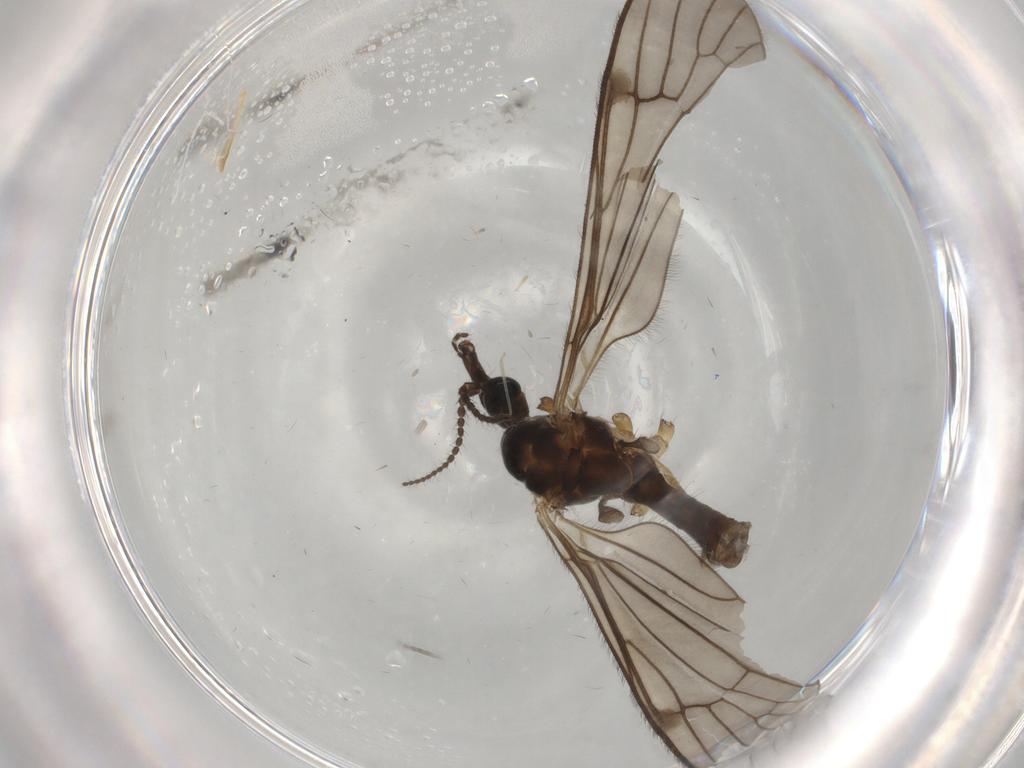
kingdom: Animalia
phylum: Arthropoda
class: Insecta
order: Diptera
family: Limoniidae
